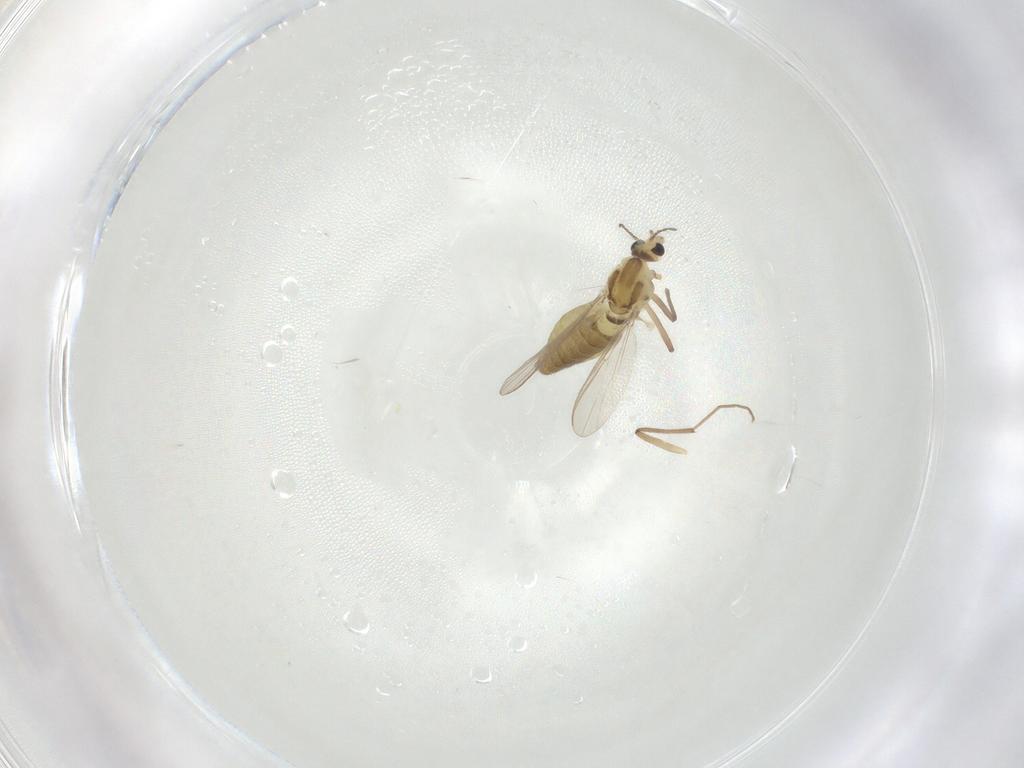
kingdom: Animalia
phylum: Arthropoda
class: Insecta
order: Diptera
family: Chironomidae
